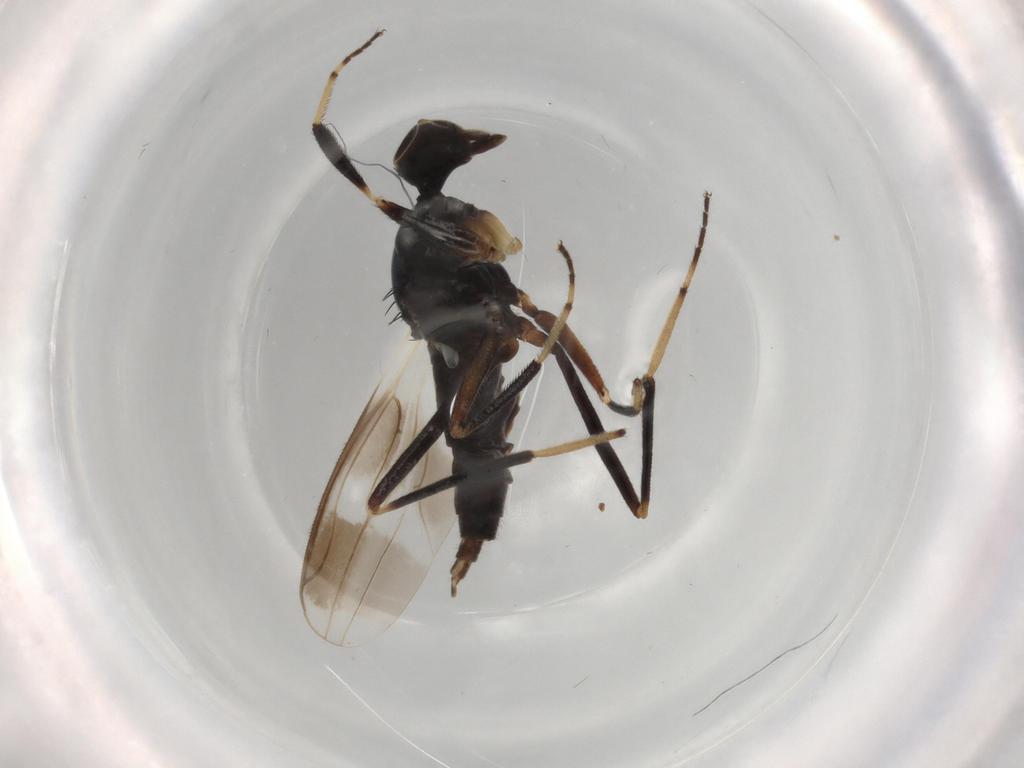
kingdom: Animalia
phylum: Arthropoda
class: Insecta
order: Diptera
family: Hybotidae
